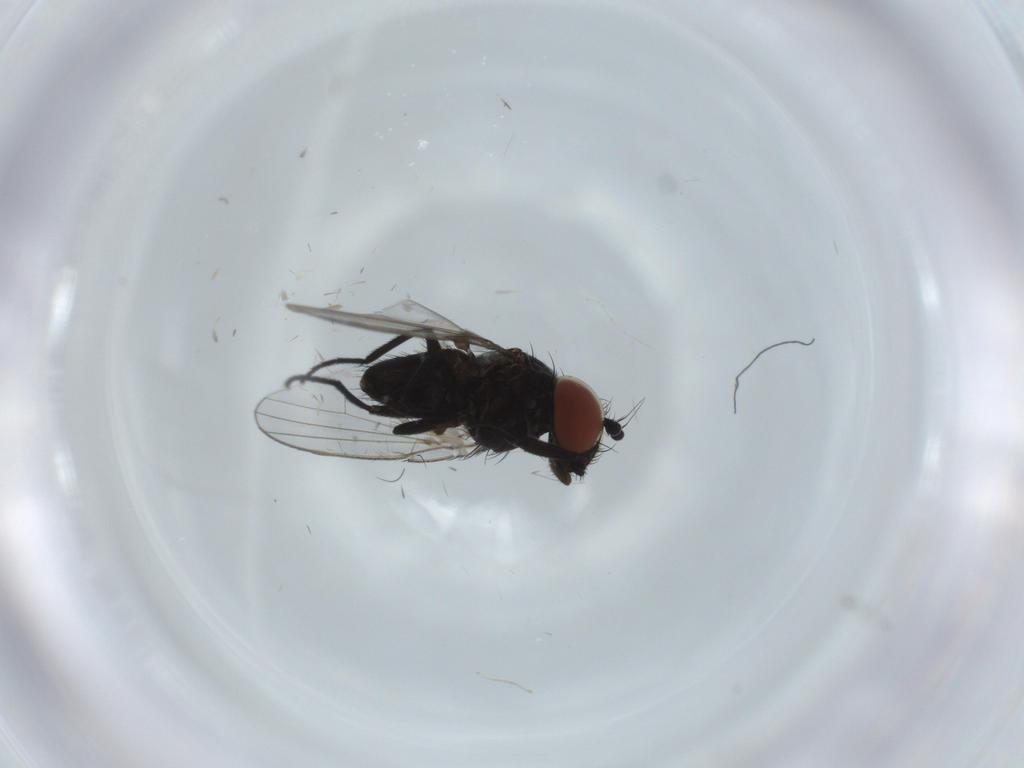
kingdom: Animalia
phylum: Arthropoda
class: Insecta
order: Diptera
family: Milichiidae
